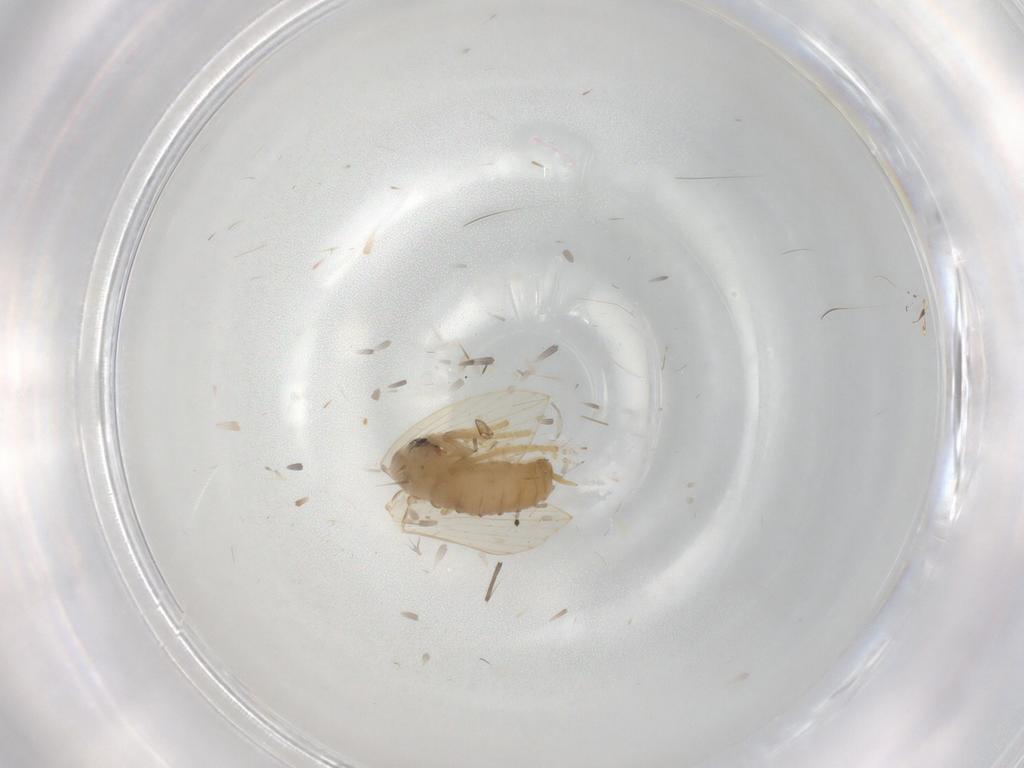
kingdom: Animalia
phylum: Arthropoda
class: Insecta
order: Diptera
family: Psychodidae
